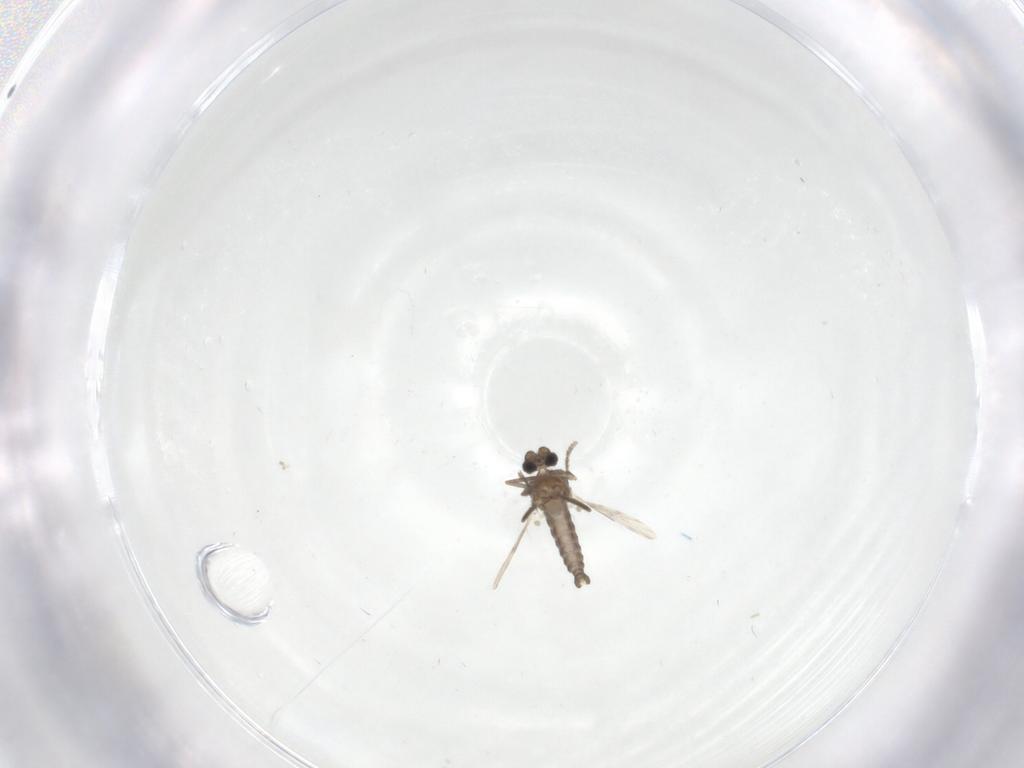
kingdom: Animalia
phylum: Arthropoda
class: Insecta
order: Diptera
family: Ceratopogonidae
